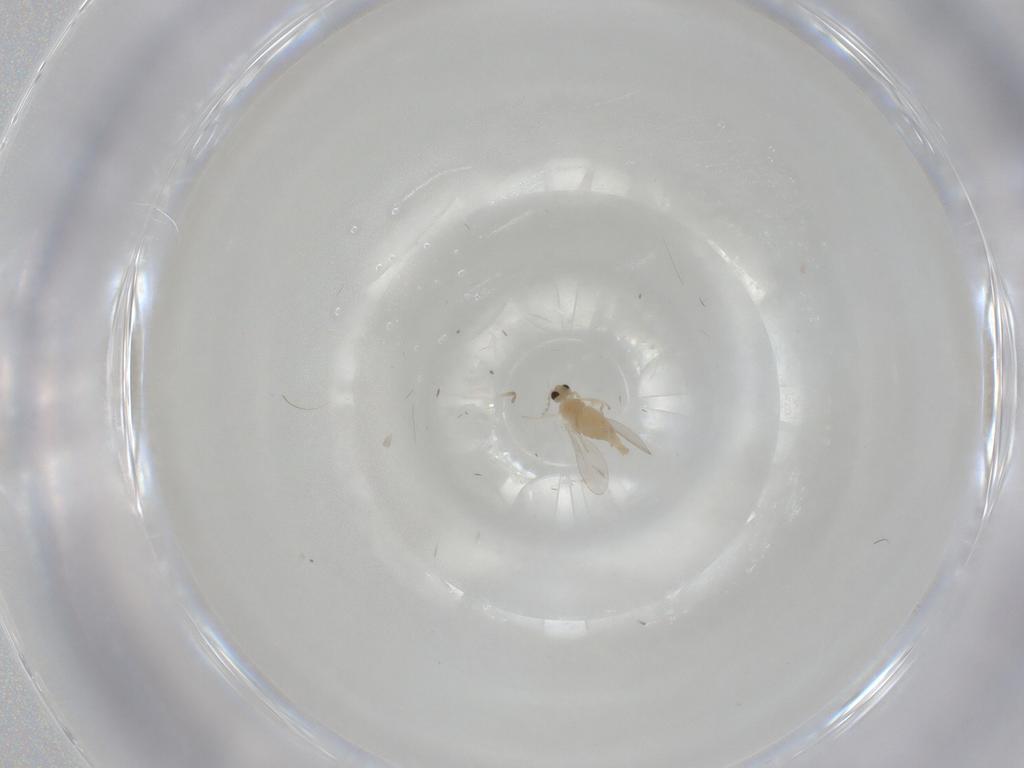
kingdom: Animalia
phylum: Arthropoda
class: Insecta
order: Diptera
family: Cecidomyiidae
